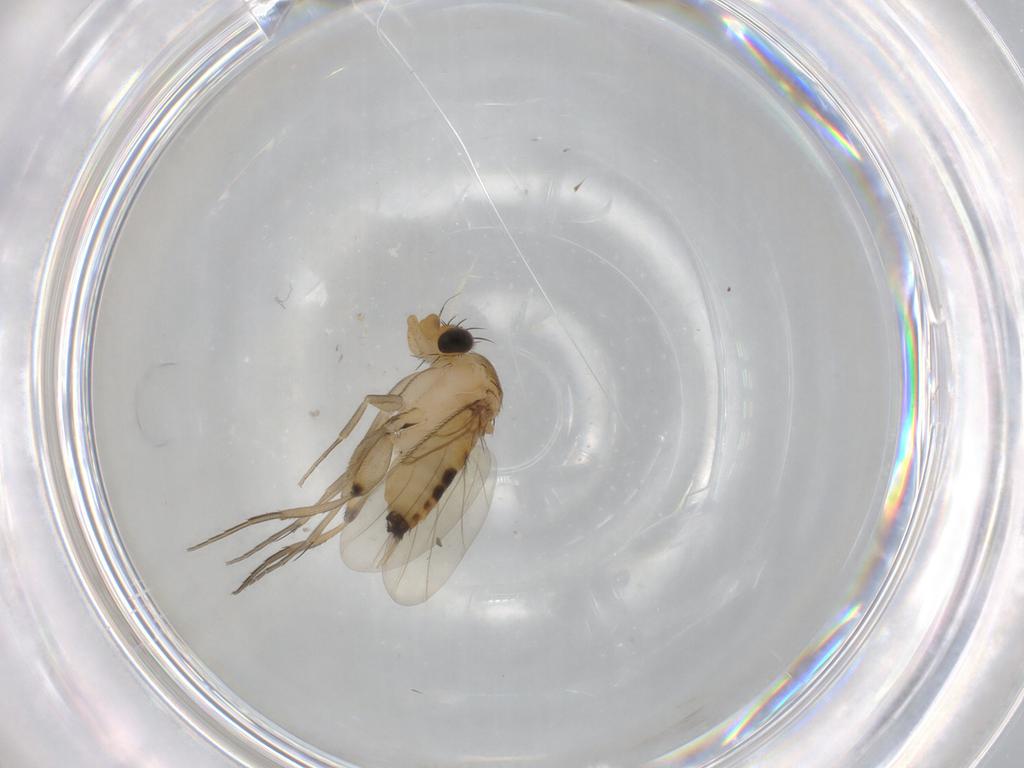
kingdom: Animalia
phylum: Arthropoda
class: Insecta
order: Diptera
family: Phoridae
